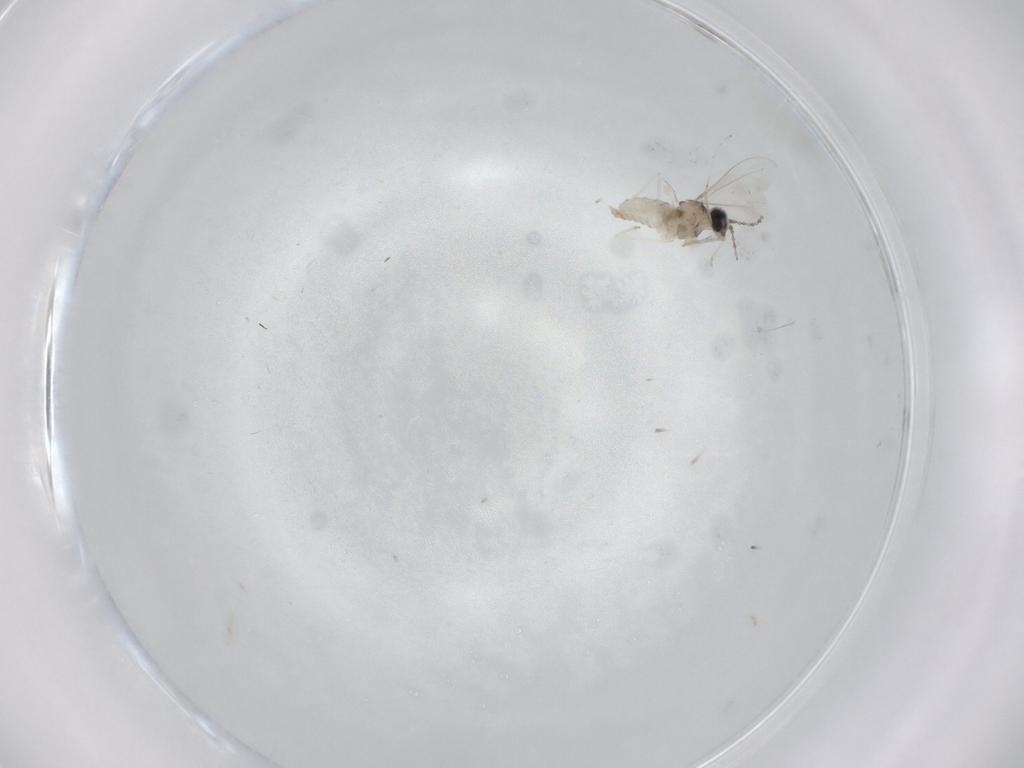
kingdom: Animalia
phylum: Arthropoda
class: Insecta
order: Diptera
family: Cecidomyiidae
